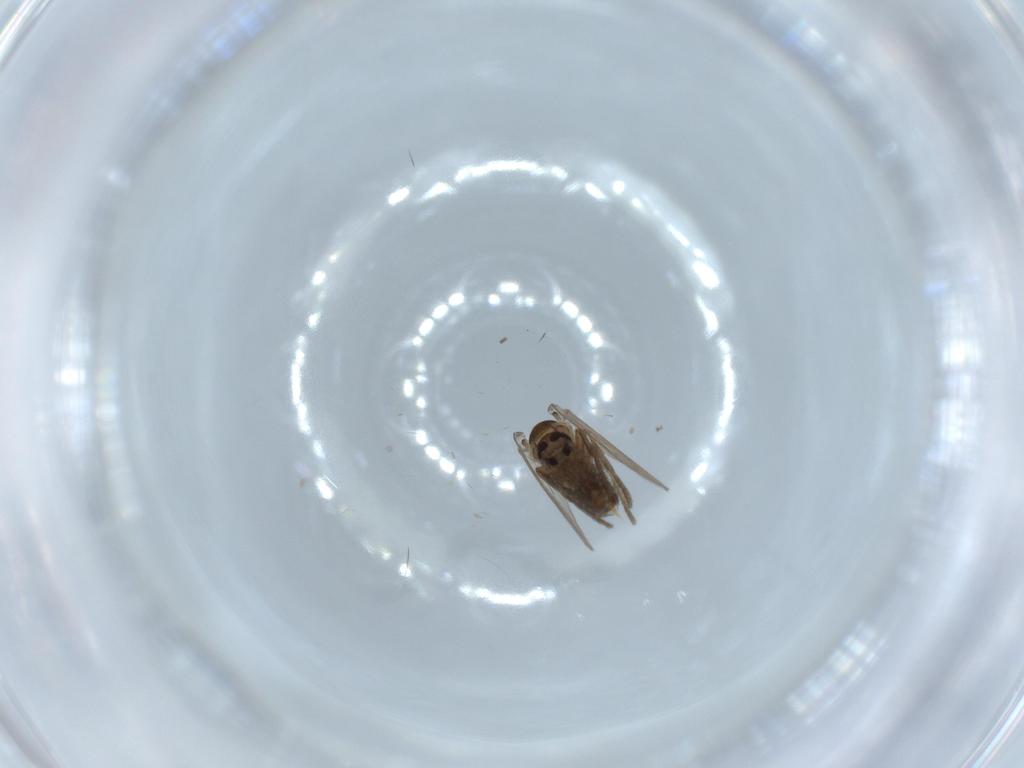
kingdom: Animalia
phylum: Arthropoda
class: Insecta
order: Diptera
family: Psychodidae
